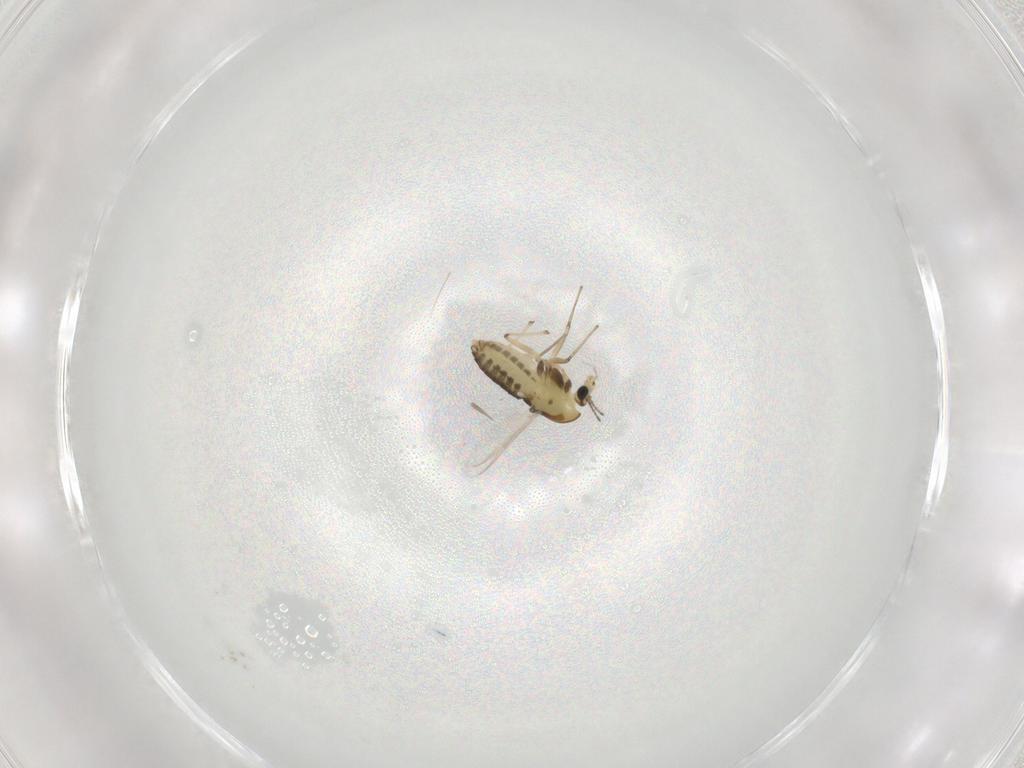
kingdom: Animalia
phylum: Arthropoda
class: Insecta
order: Diptera
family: Chironomidae
